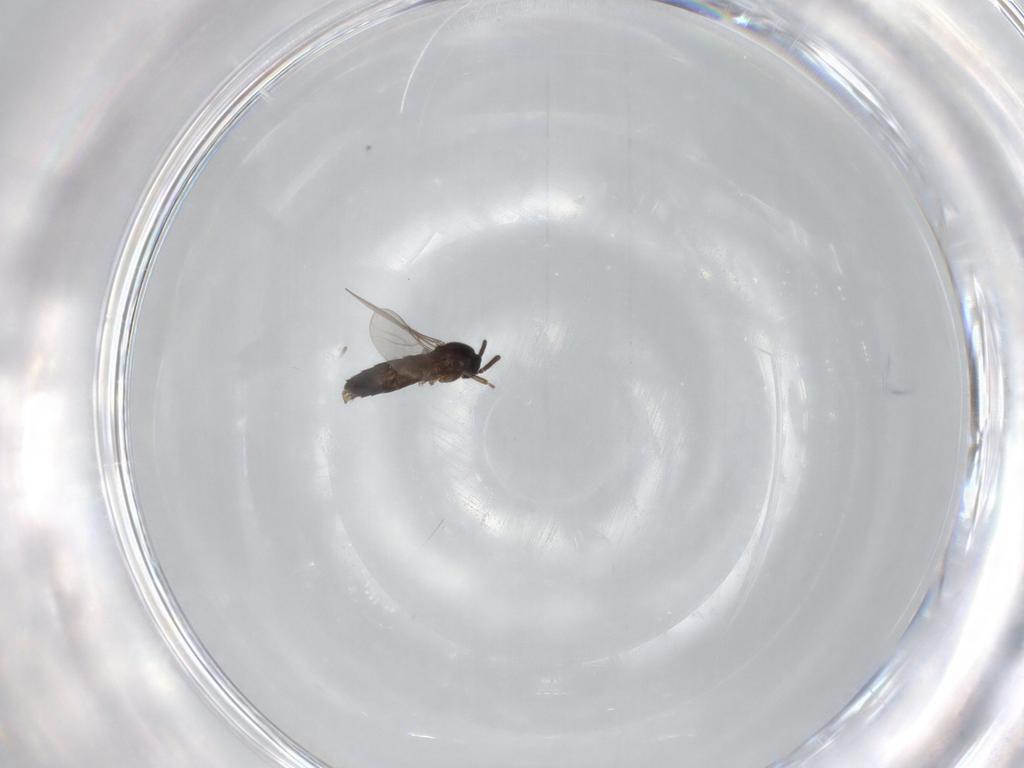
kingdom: Animalia
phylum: Arthropoda
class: Insecta
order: Diptera
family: Scatopsidae
